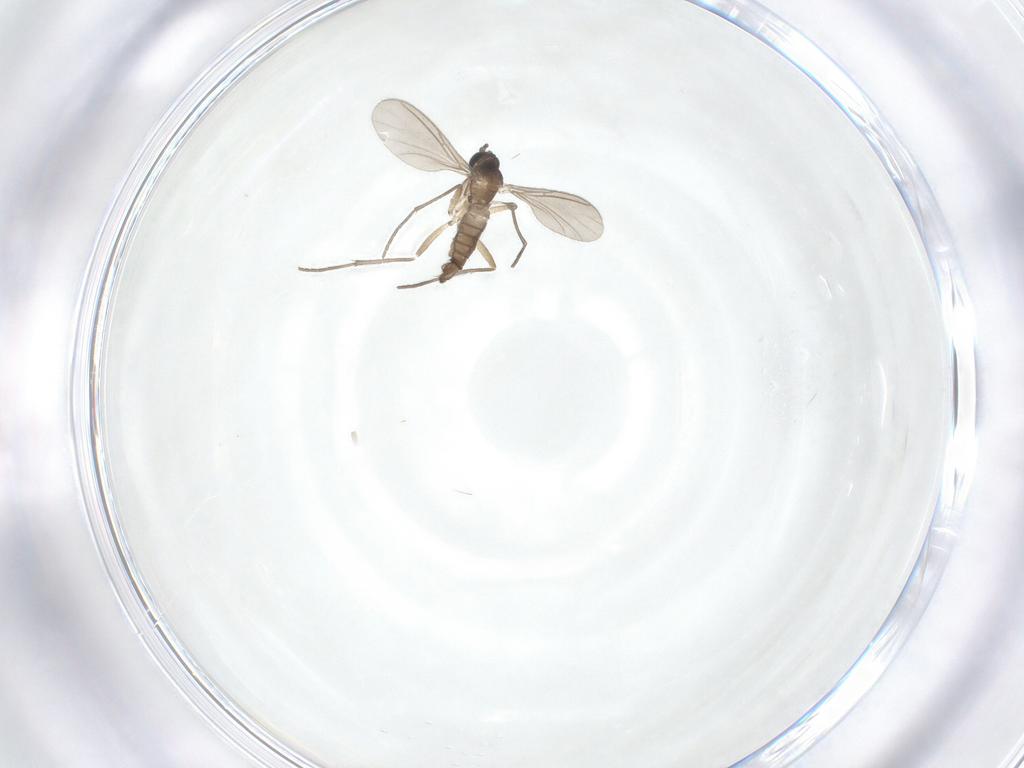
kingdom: Animalia
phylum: Arthropoda
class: Insecta
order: Diptera
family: Sciaridae
